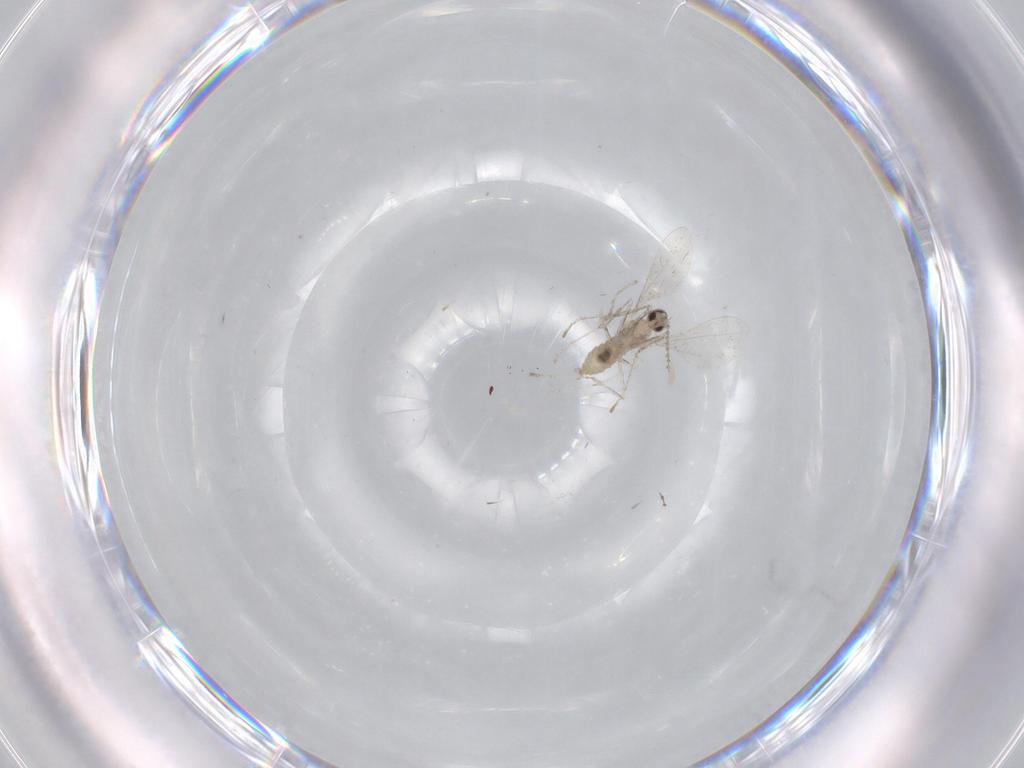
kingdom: Animalia
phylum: Arthropoda
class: Insecta
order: Diptera
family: Cecidomyiidae
